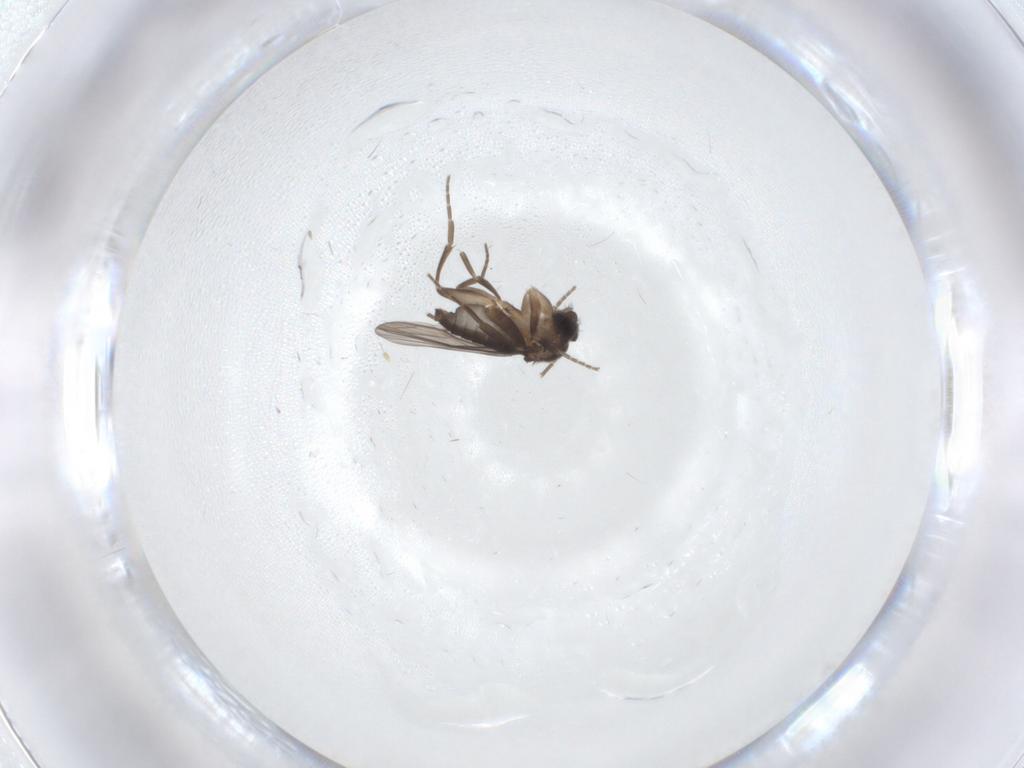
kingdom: Animalia
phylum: Arthropoda
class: Insecta
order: Diptera
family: Phoridae
